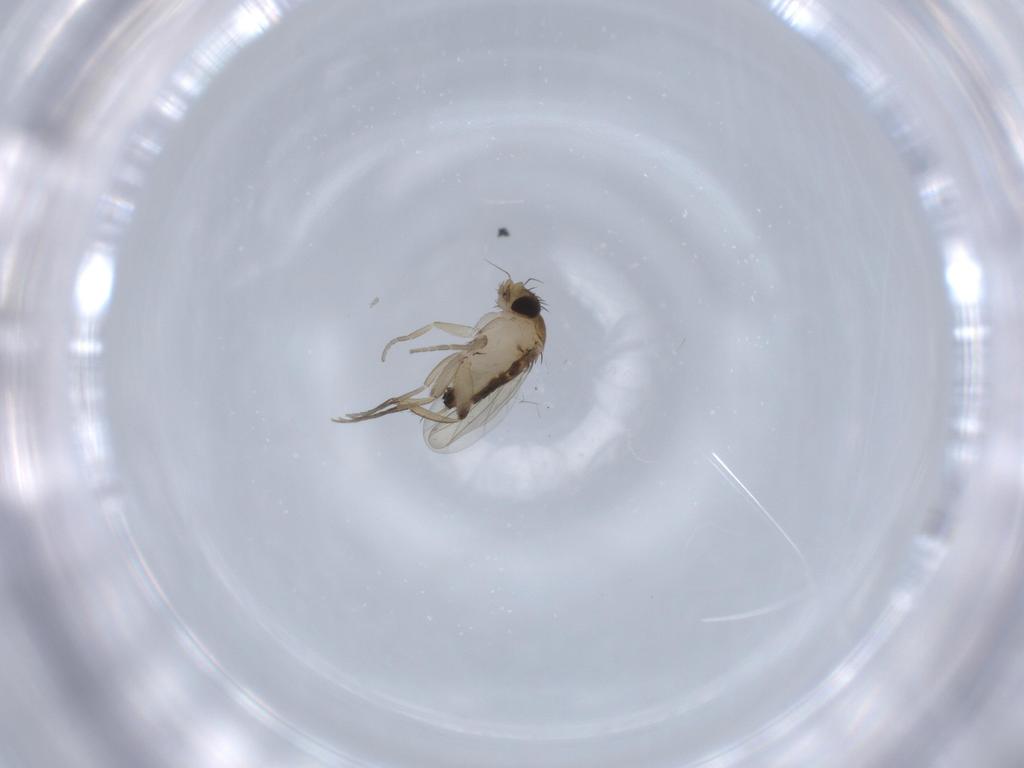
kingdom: Animalia
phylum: Arthropoda
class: Insecta
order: Diptera
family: Phoridae
